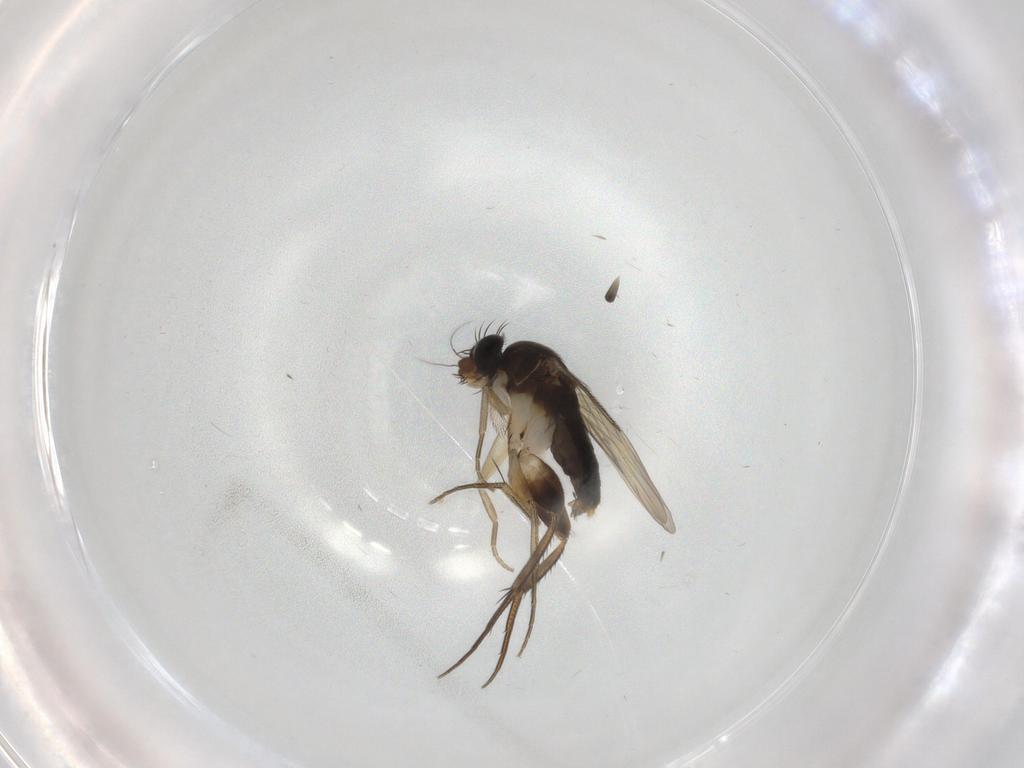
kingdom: Animalia
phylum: Arthropoda
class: Insecta
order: Diptera
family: Phoridae
